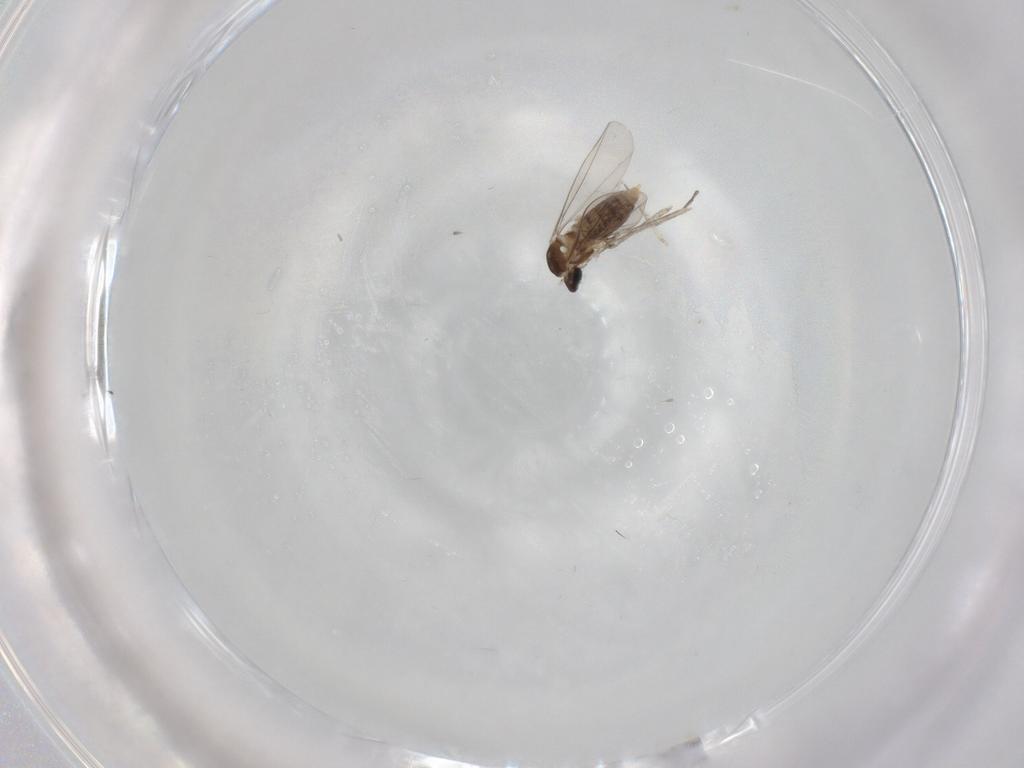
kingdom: Animalia
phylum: Arthropoda
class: Insecta
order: Diptera
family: Cecidomyiidae
